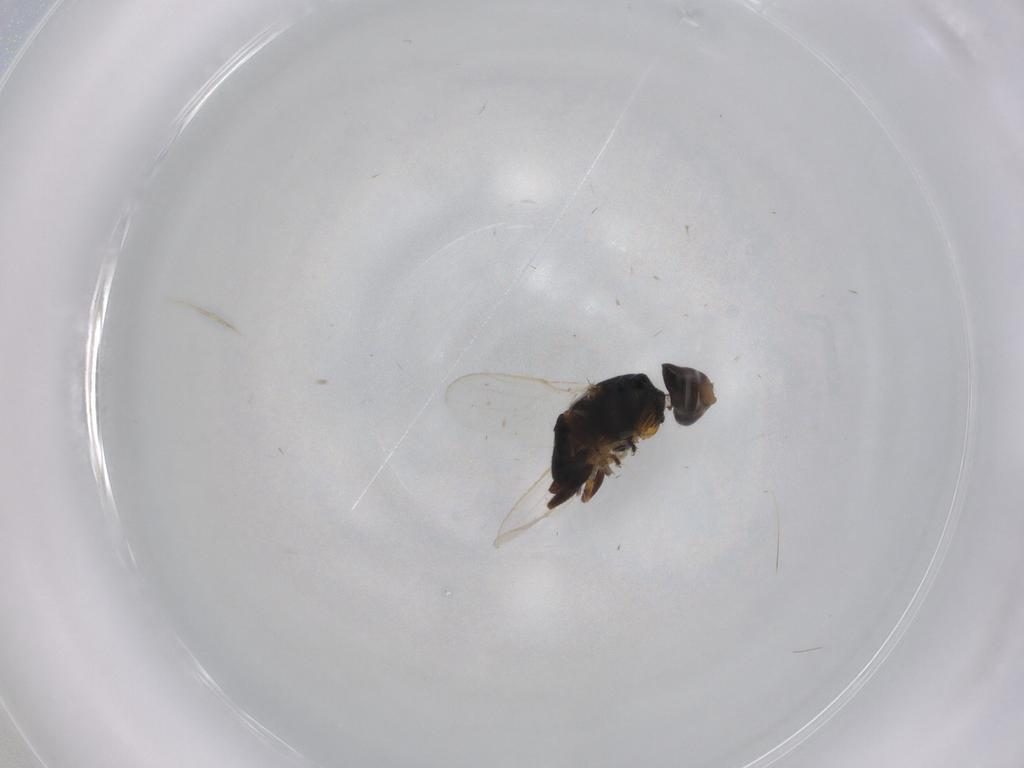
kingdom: Animalia
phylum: Arthropoda
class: Insecta
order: Diptera
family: Chloropidae
